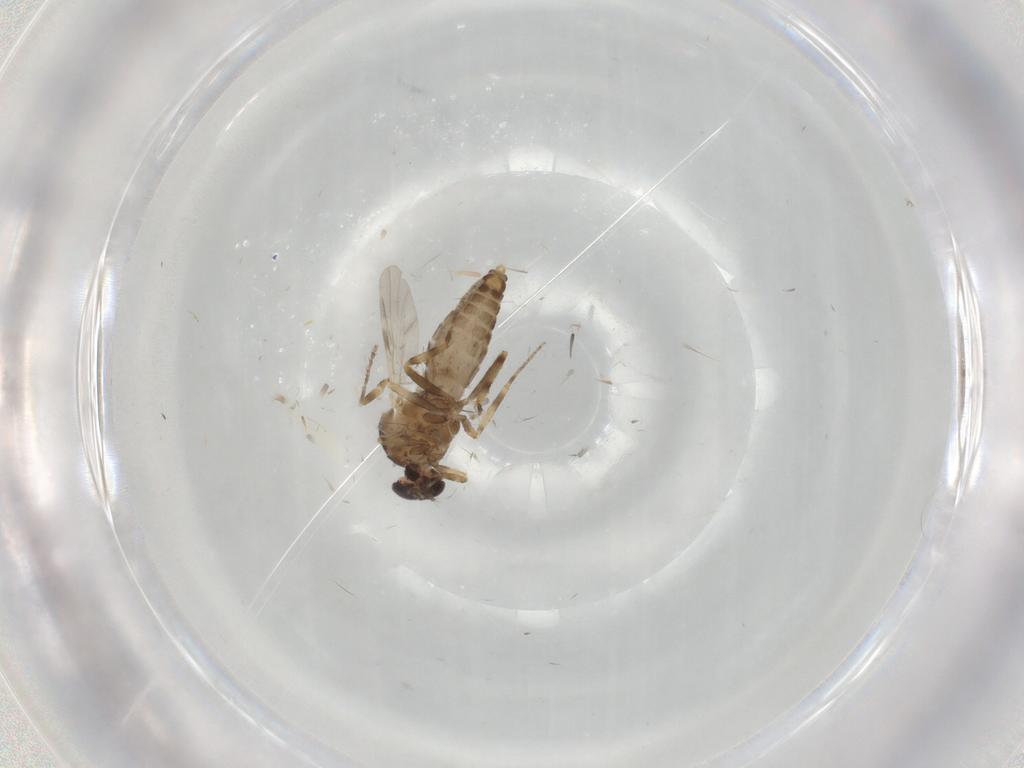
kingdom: Animalia
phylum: Arthropoda
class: Insecta
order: Diptera
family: Ceratopogonidae
